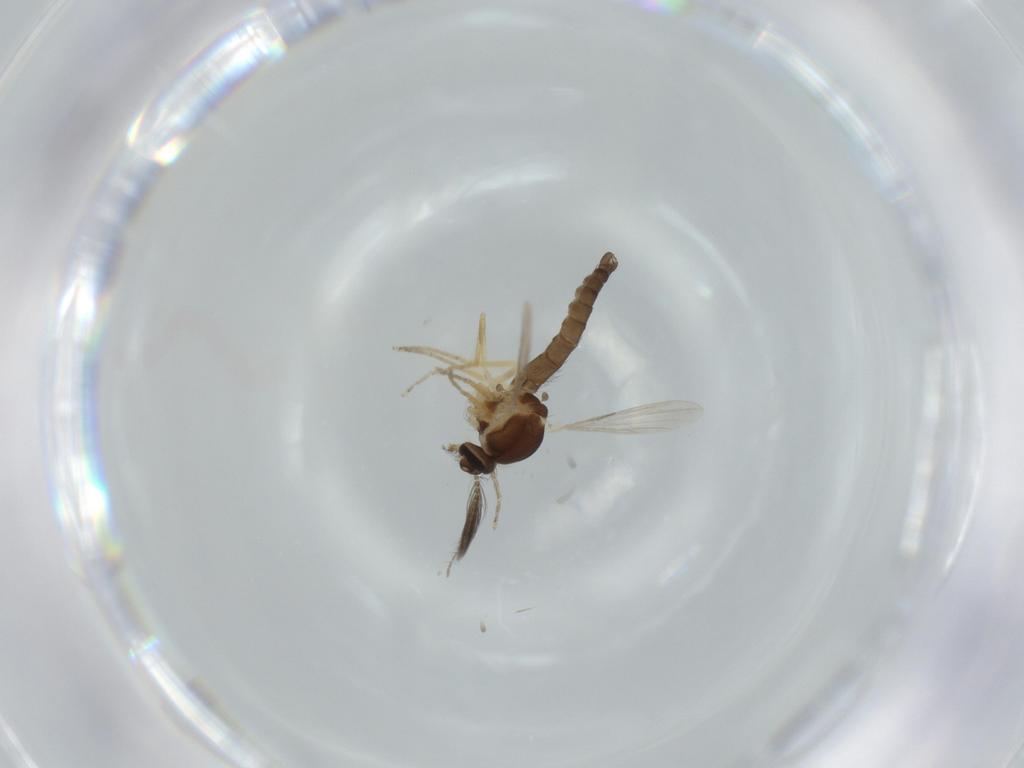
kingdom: Animalia
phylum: Arthropoda
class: Insecta
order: Diptera
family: Ceratopogonidae
